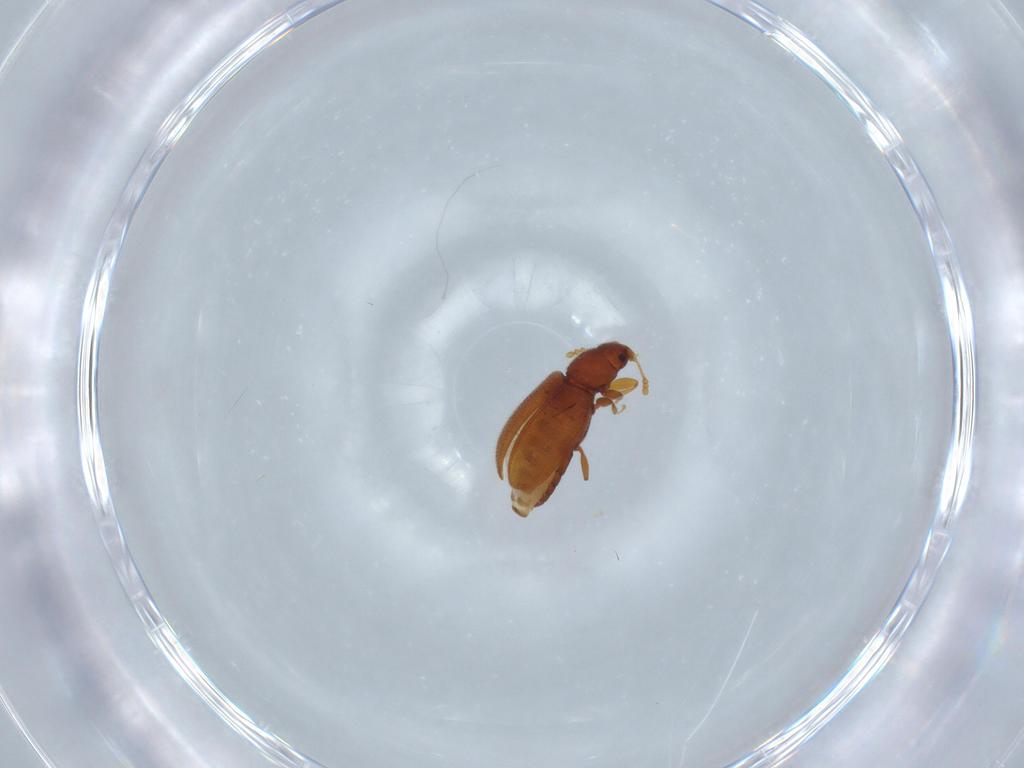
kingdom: Animalia
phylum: Arthropoda
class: Insecta
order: Coleoptera
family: Latridiidae
